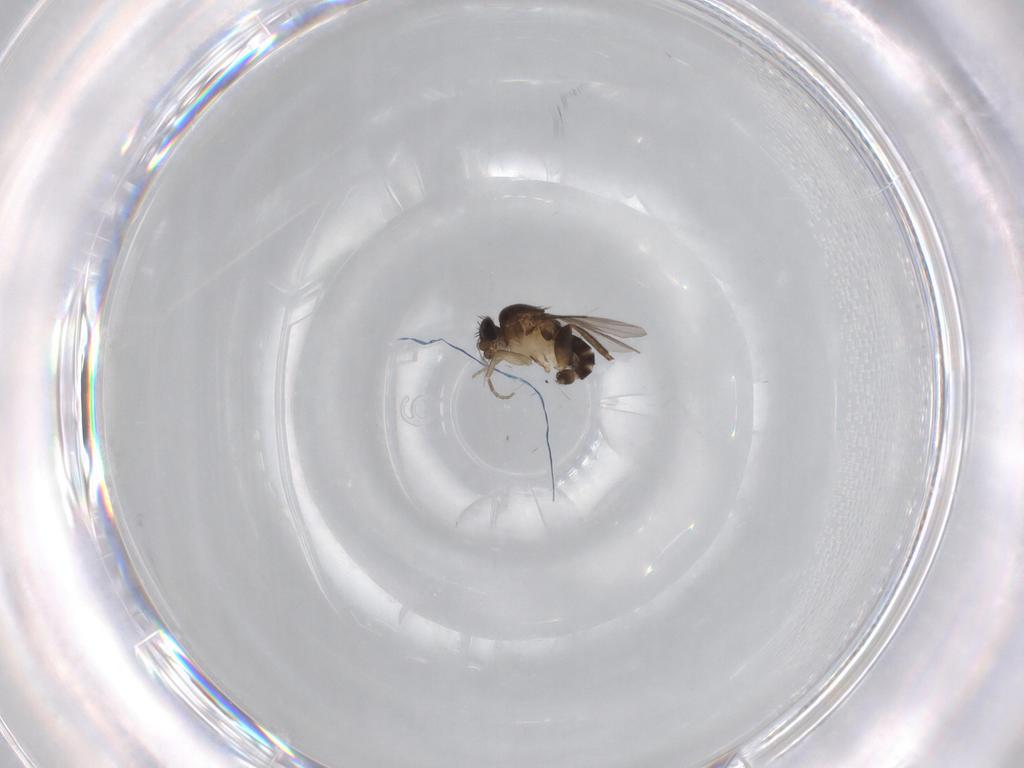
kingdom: Animalia
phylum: Arthropoda
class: Insecta
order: Diptera
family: Phoridae
